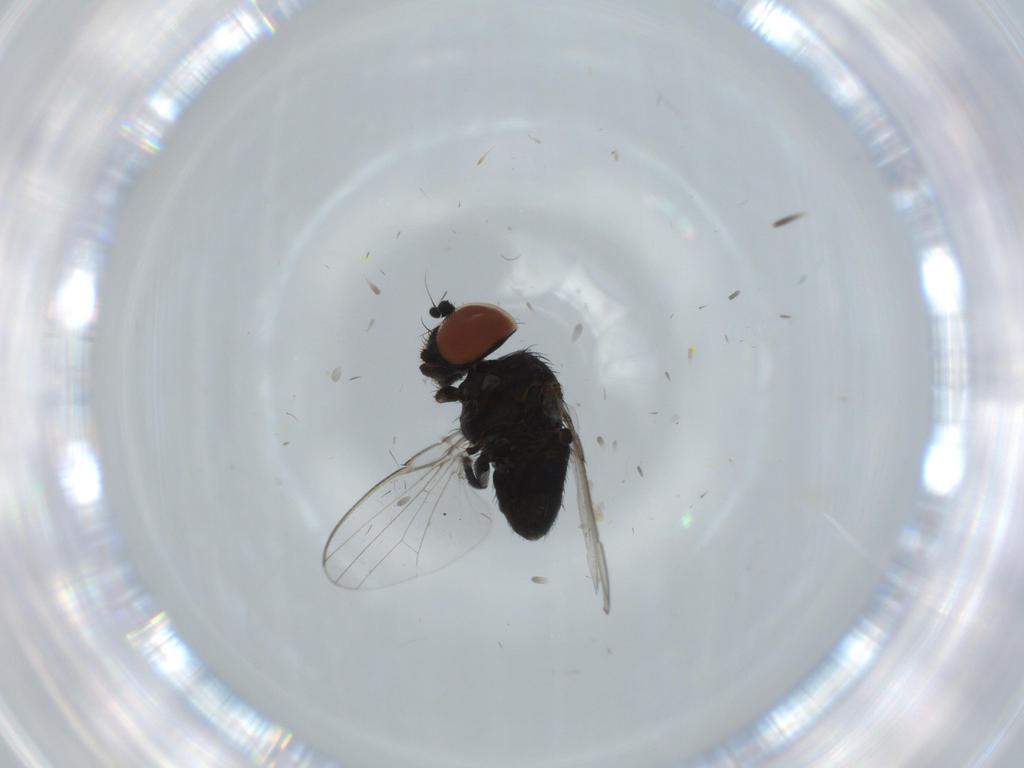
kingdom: Animalia
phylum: Arthropoda
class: Insecta
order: Diptera
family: Milichiidae
